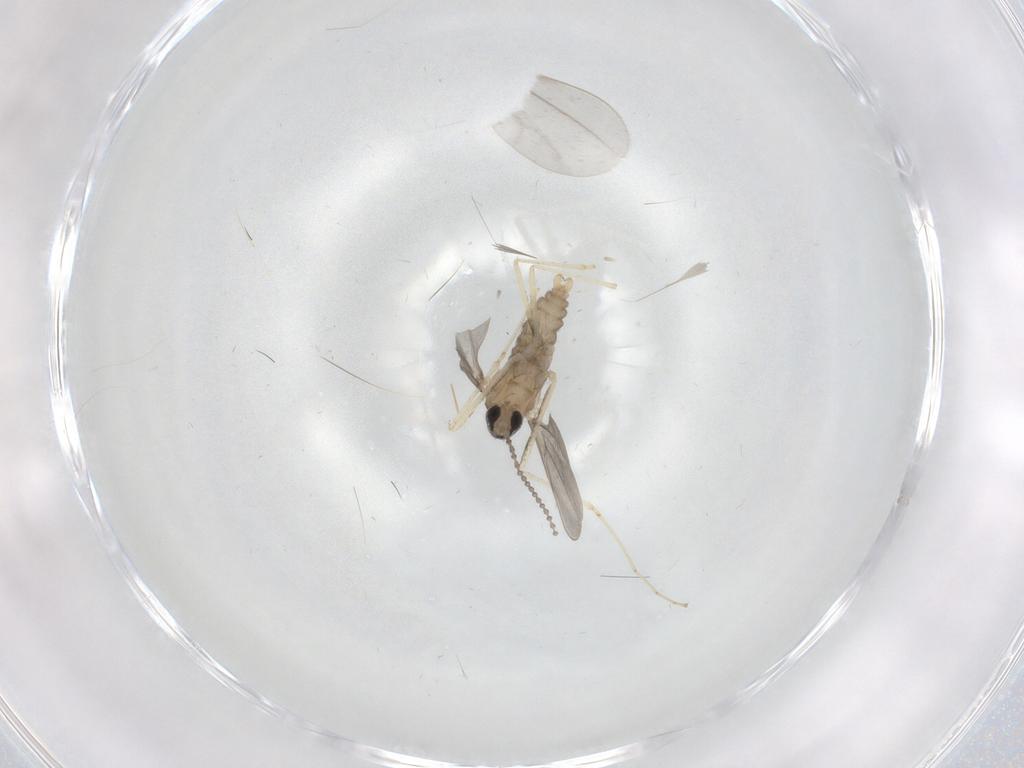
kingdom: Animalia
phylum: Arthropoda
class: Insecta
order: Diptera
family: Cecidomyiidae
